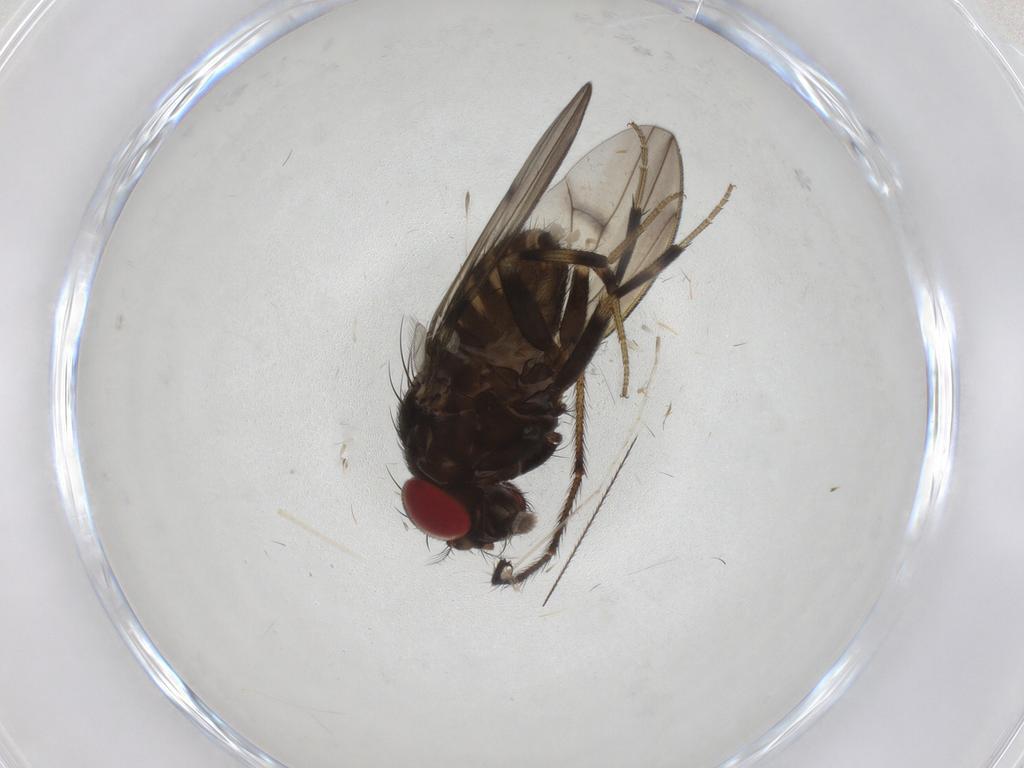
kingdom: Animalia
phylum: Arthropoda
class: Insecta
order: Diptera
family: Drosophilidae
